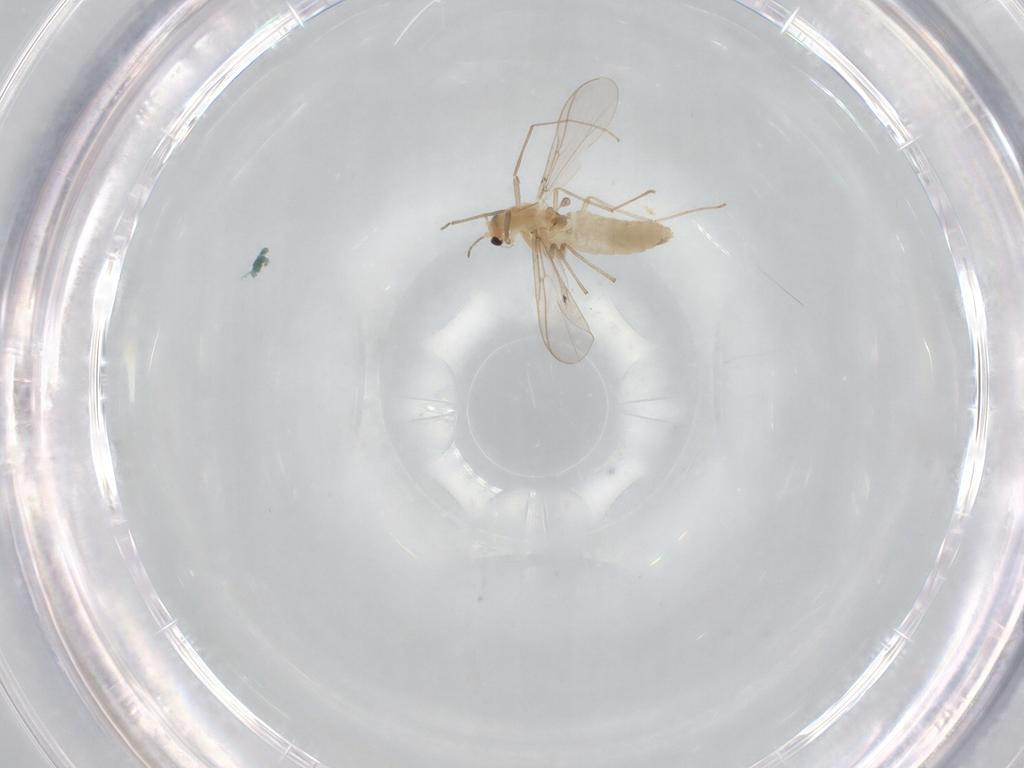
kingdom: Animalia
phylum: Arthropoda
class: Insecta
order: Diptera
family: Chironomidae
